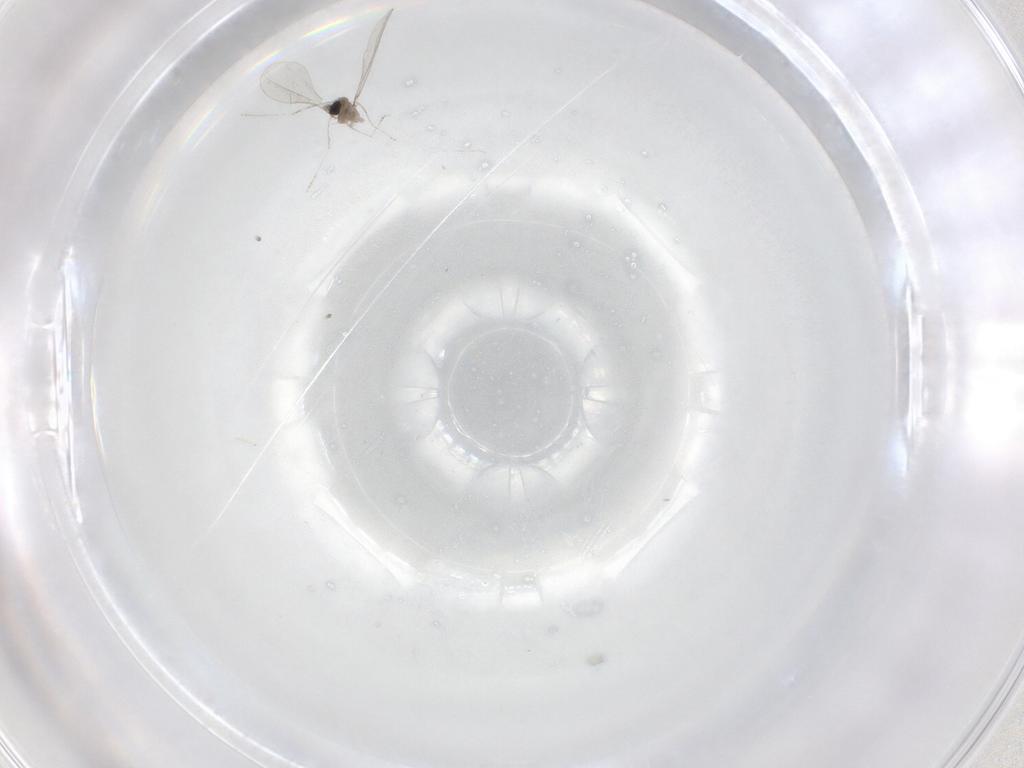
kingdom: Animalia
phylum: Arthropoda
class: Insecta
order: Diptera
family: Cecidomyiidae
